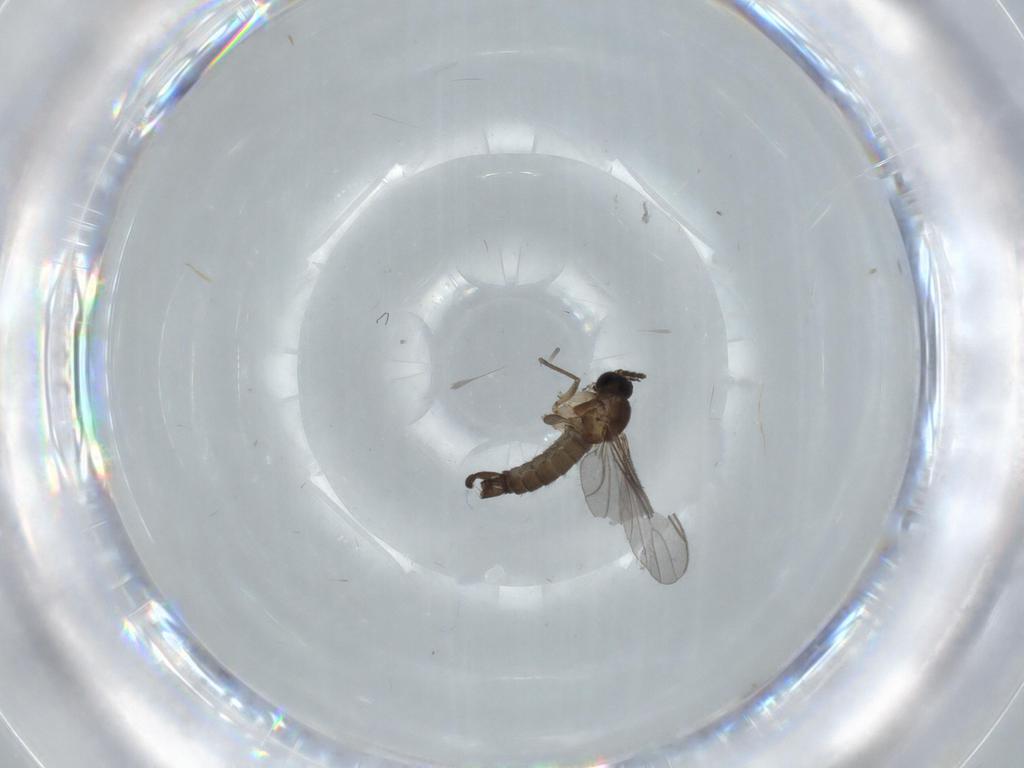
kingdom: Animalia
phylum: Arthropoda
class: Insecta
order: Diptera
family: Sciaridae
